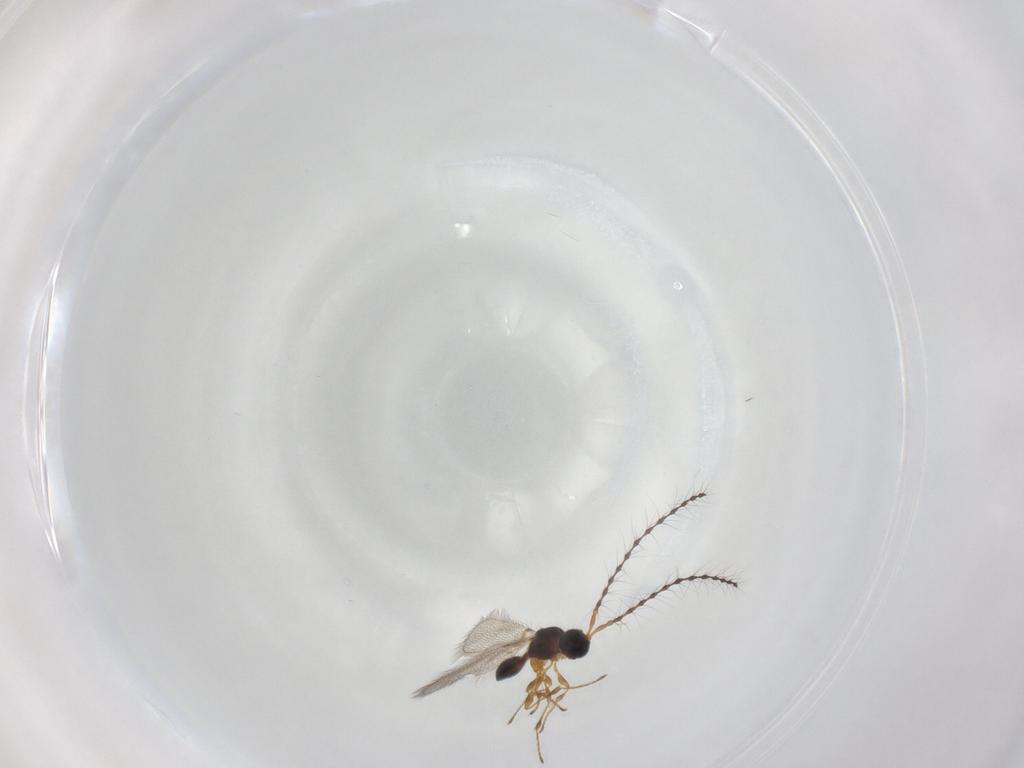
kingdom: Animalia
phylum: Arthropoda
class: Insecta
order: Hymenoptera
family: Diapriidae
